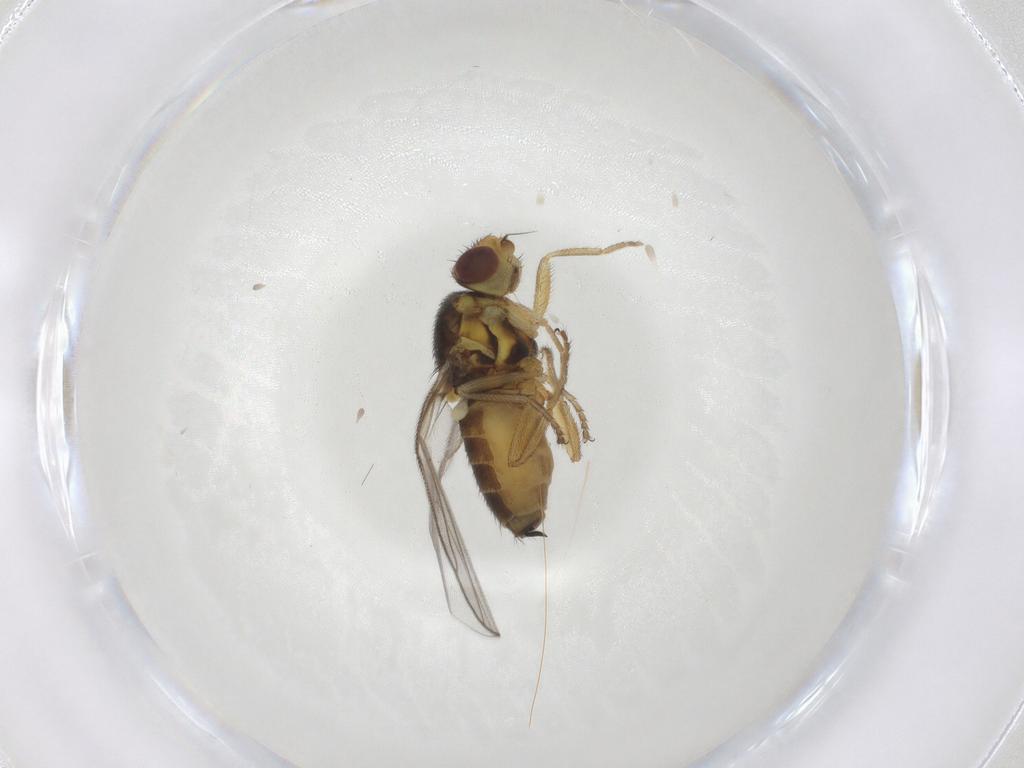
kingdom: Animalia
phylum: Arthropoda
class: Insecta
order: Diptera
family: Chloropidae
